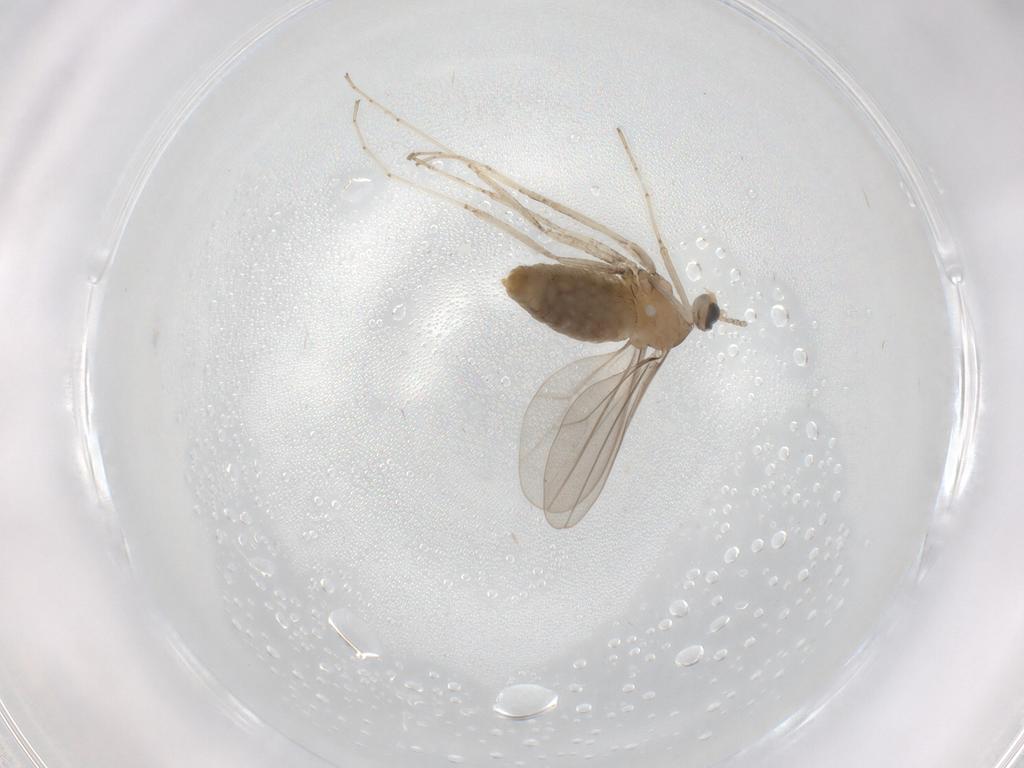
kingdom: Animalia
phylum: Arthropoda
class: Insecta
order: Diptera
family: Cecidomyiidae
